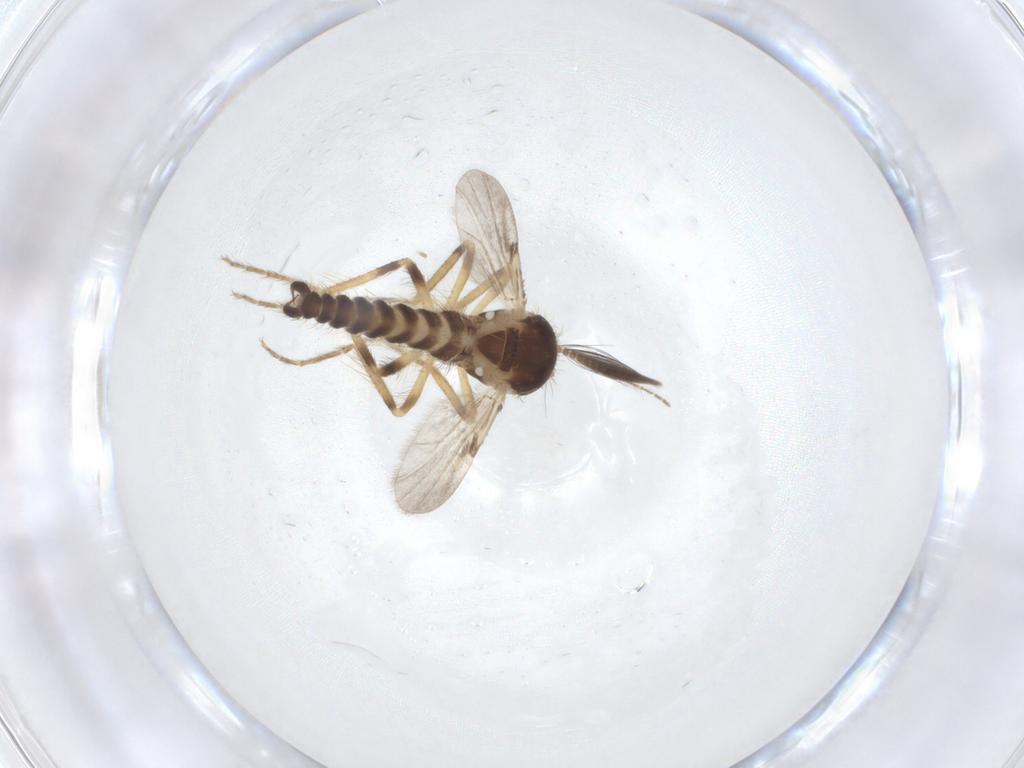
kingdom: Animalia
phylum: Arthropoda
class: Insecta
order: Diptera
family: Ceratopogonidae
